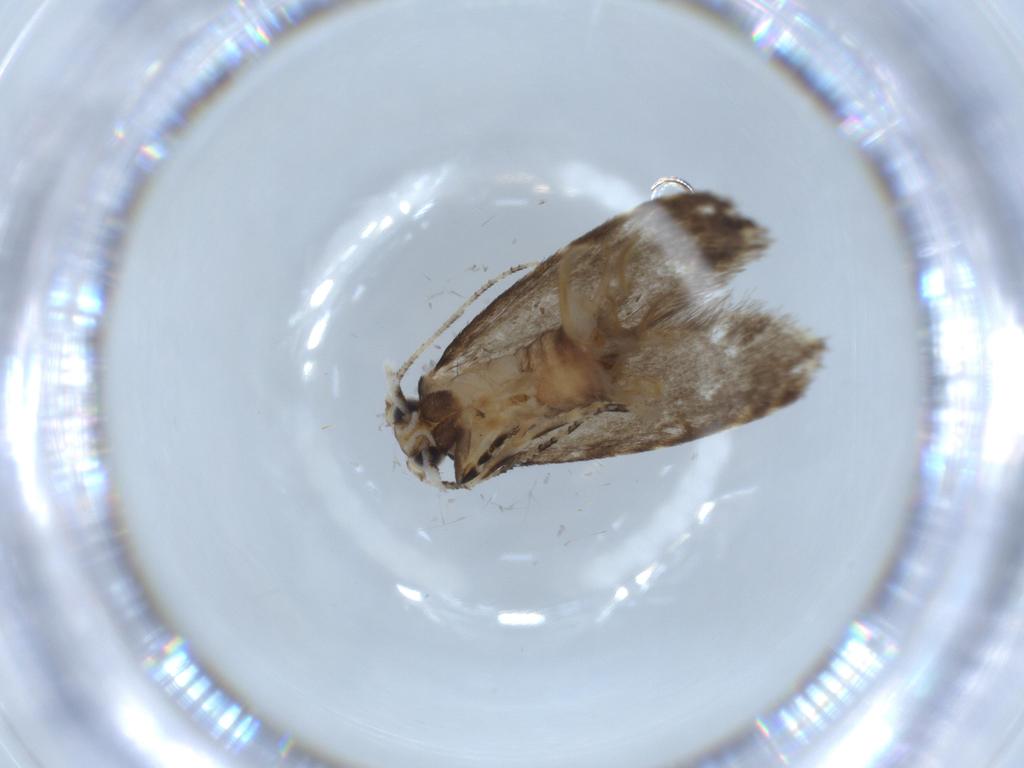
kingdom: Animalia
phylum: Arthropoda
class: Insecta
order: Lepidoptera
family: Tineidae
